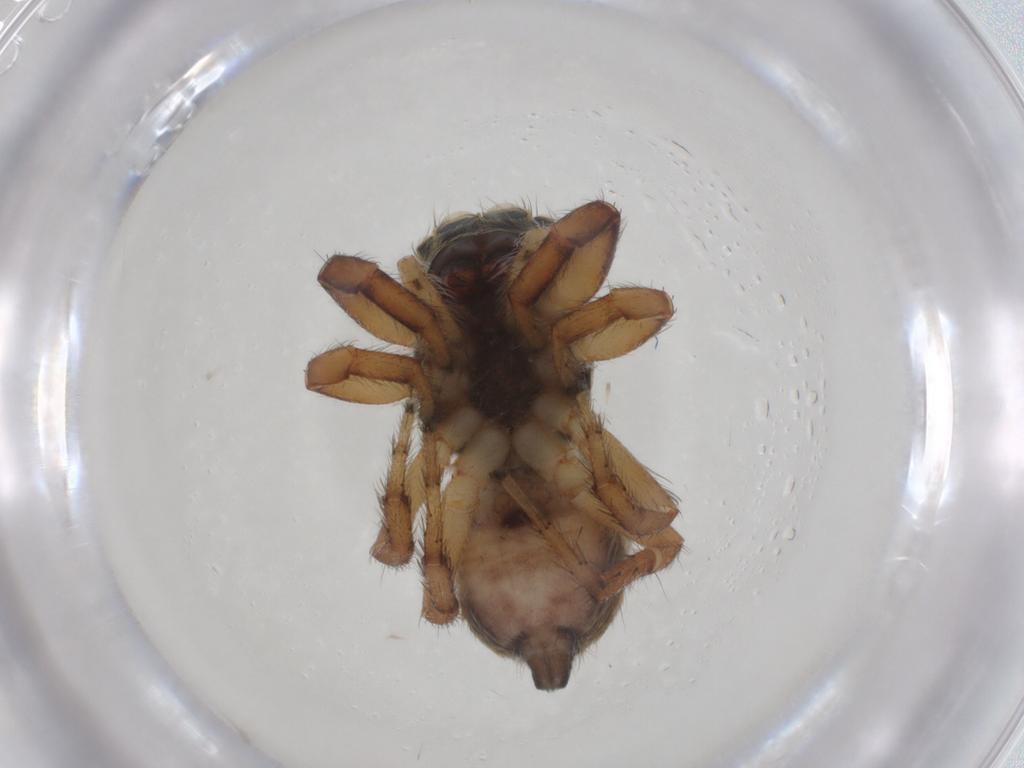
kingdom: Animalia
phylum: Arthropoda
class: Arachnida
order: Araneae
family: Salticidae
